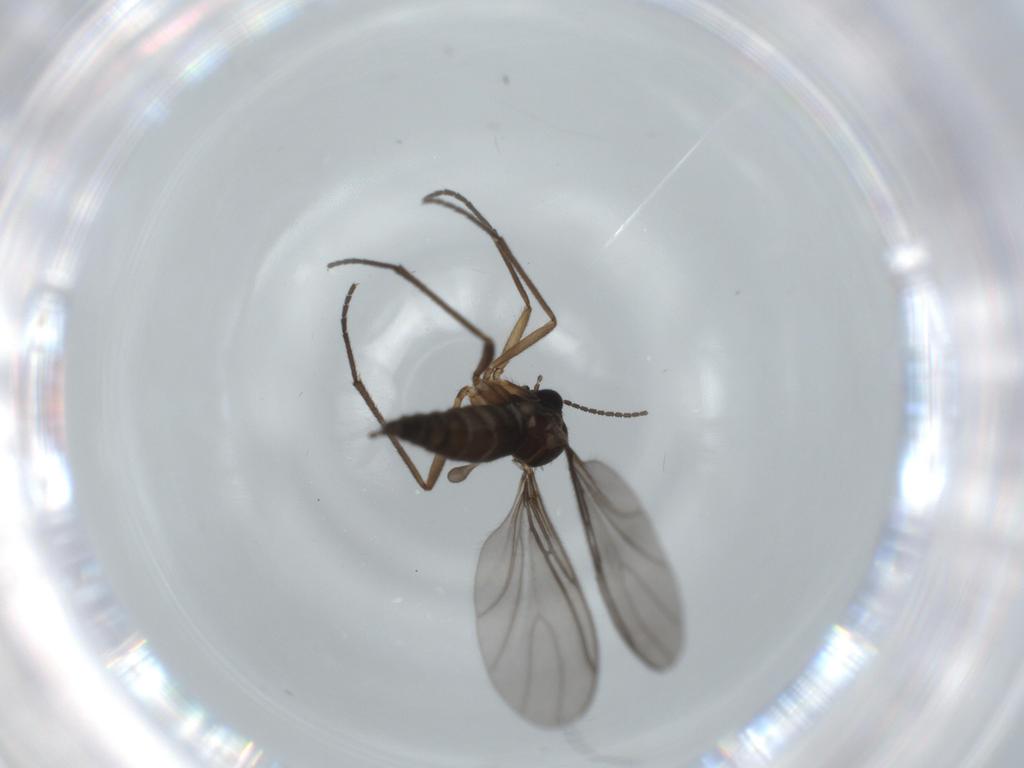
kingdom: Animalia
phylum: Arthropoda
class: Insecta
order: Diptera
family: Sciaridae
